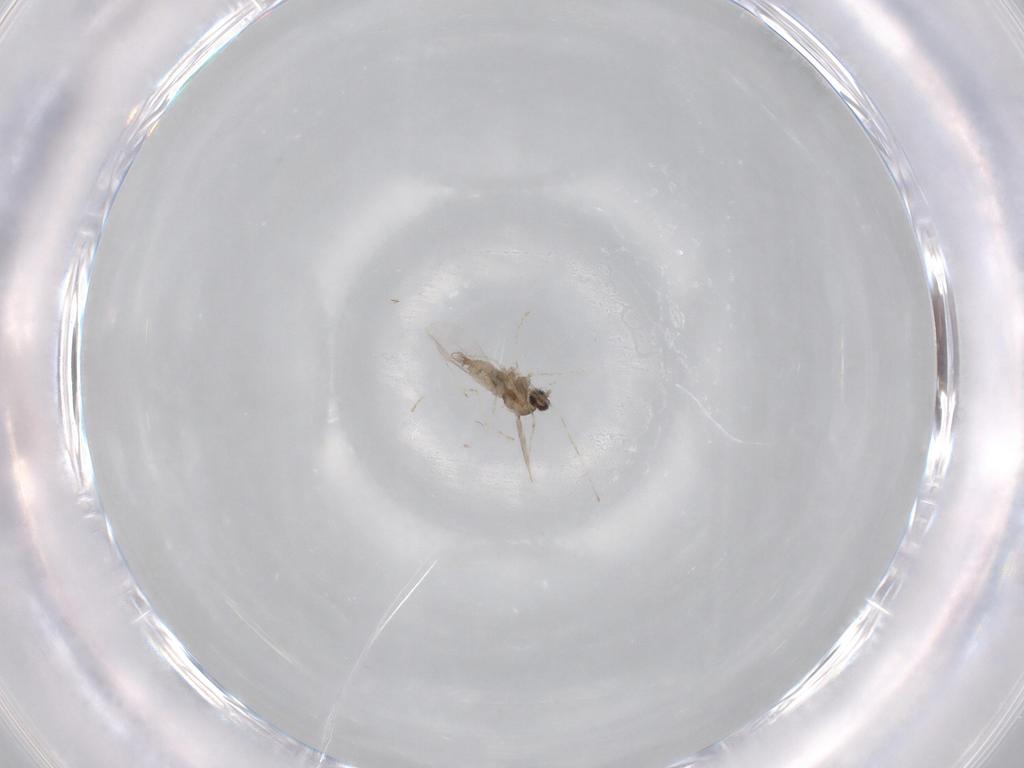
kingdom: Animalia
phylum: Arthropoda
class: Insecta
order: Diptera
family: Cecidomyiidae
